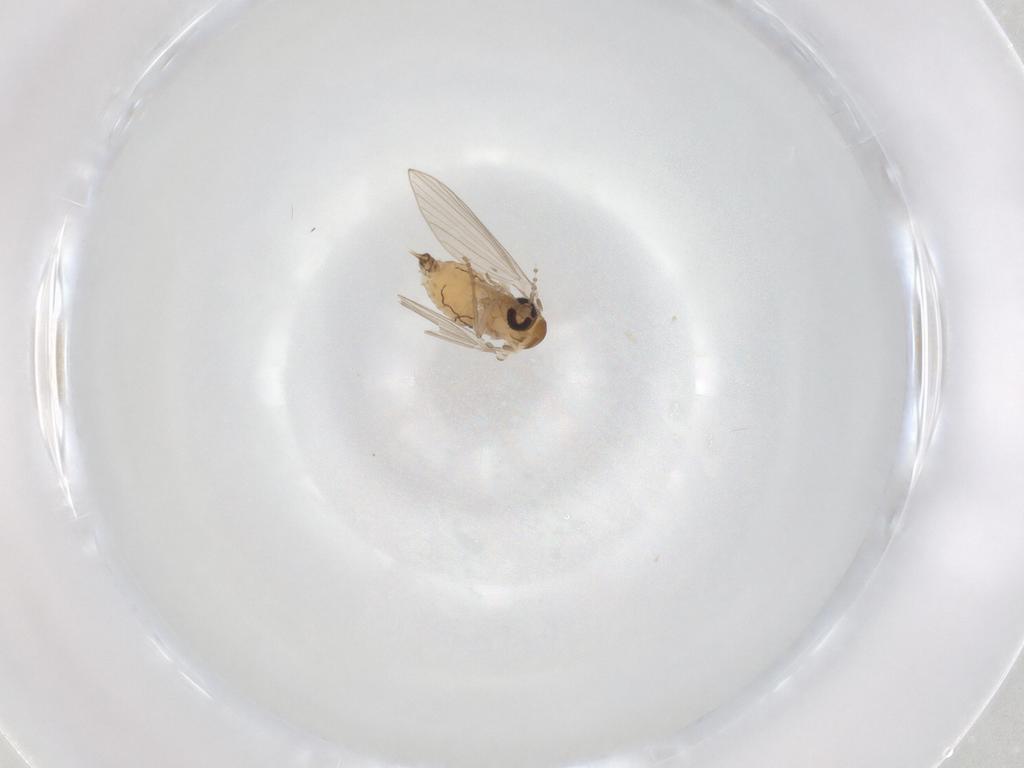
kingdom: Animalia
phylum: Arthropoda
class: Insecta
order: Diptera
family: Psychodidae
